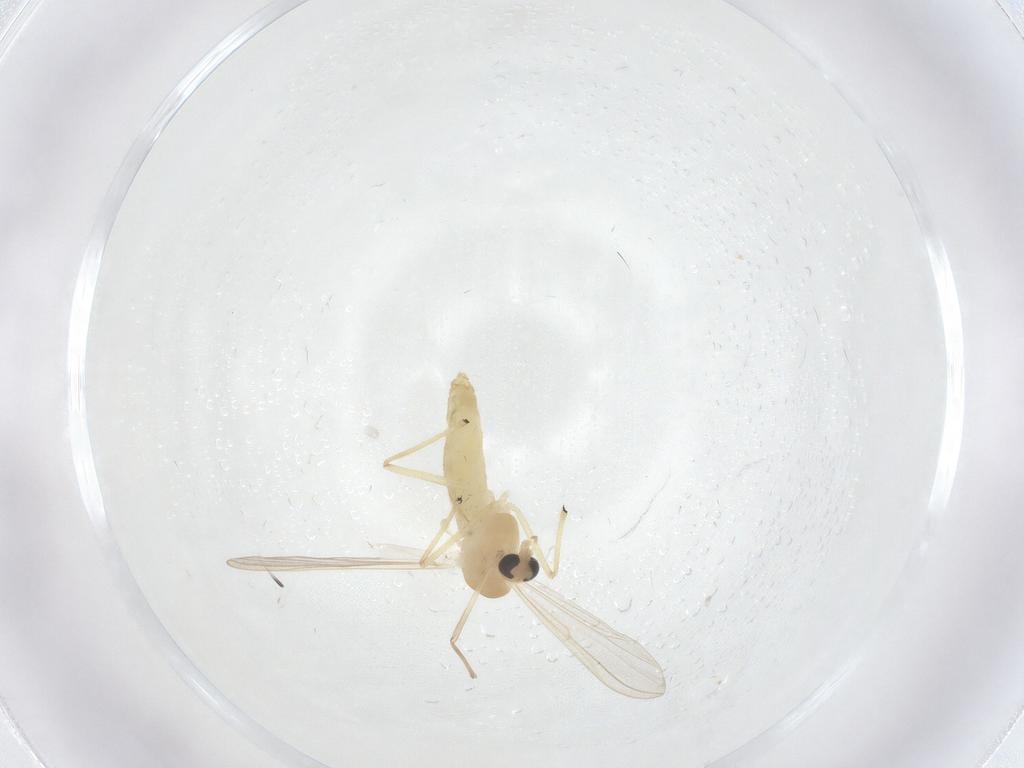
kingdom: Animalia
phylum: Arthropoda
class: Insecta
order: Diptera
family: Chironomidae
